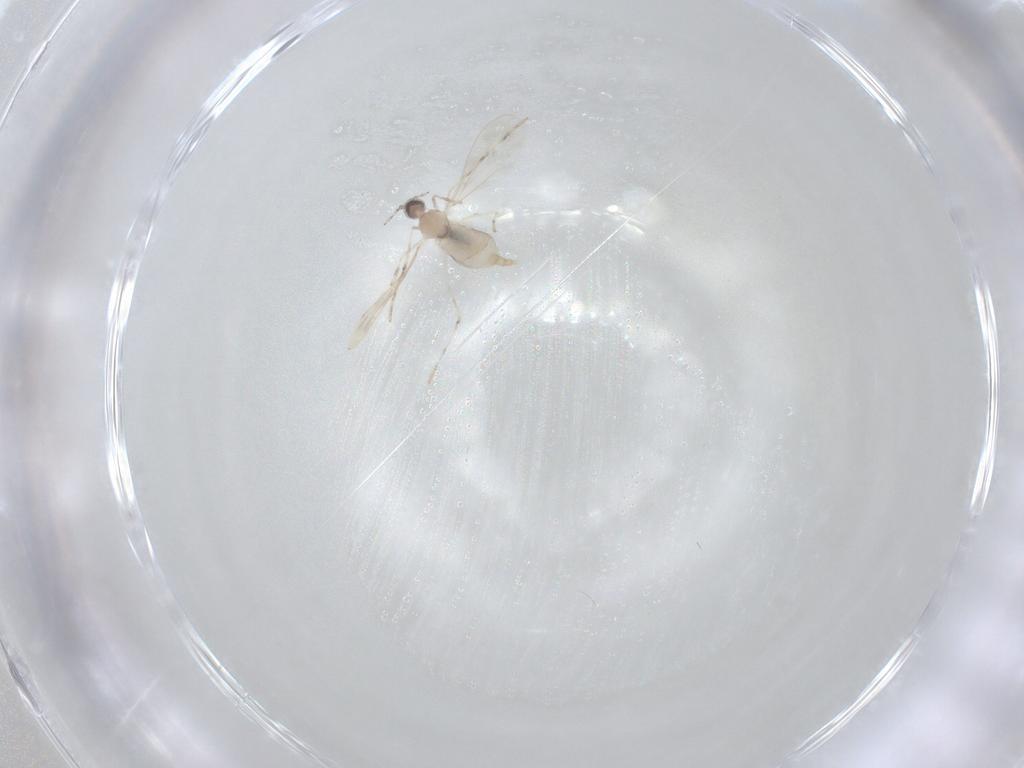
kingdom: Animalia
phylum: Arthropoda
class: Insecta
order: Diptera
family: Cecidomyiidae
